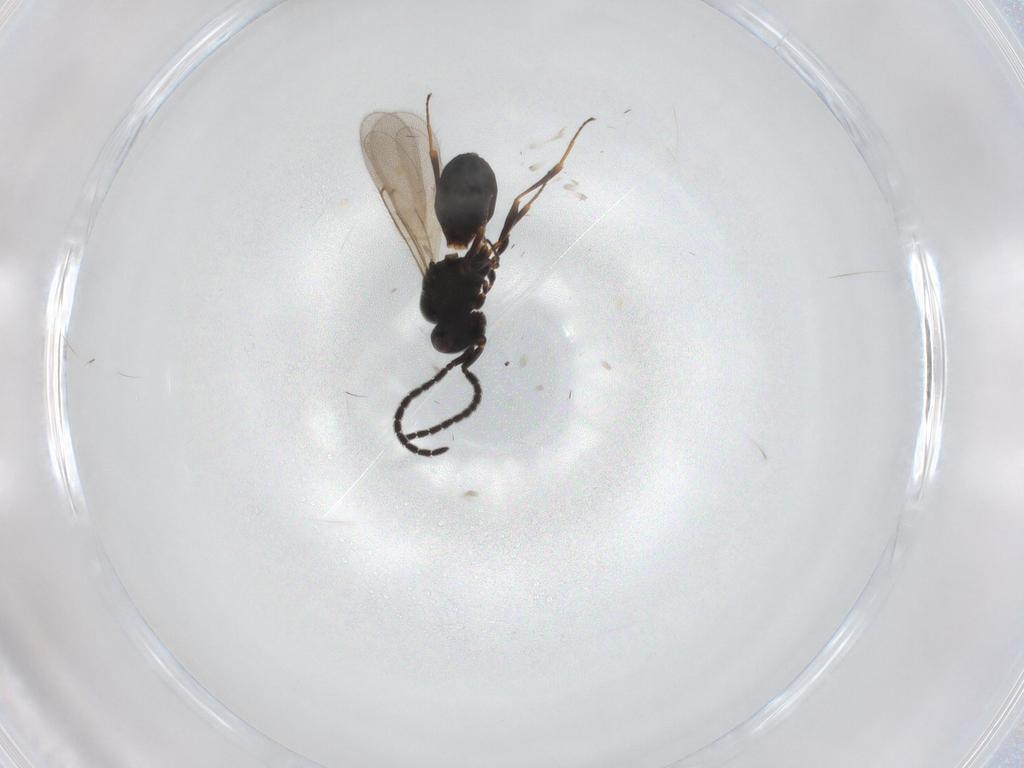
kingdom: Animalia
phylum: Arthropoda
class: Insecta
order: Hymenoptera
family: Scelionidae
